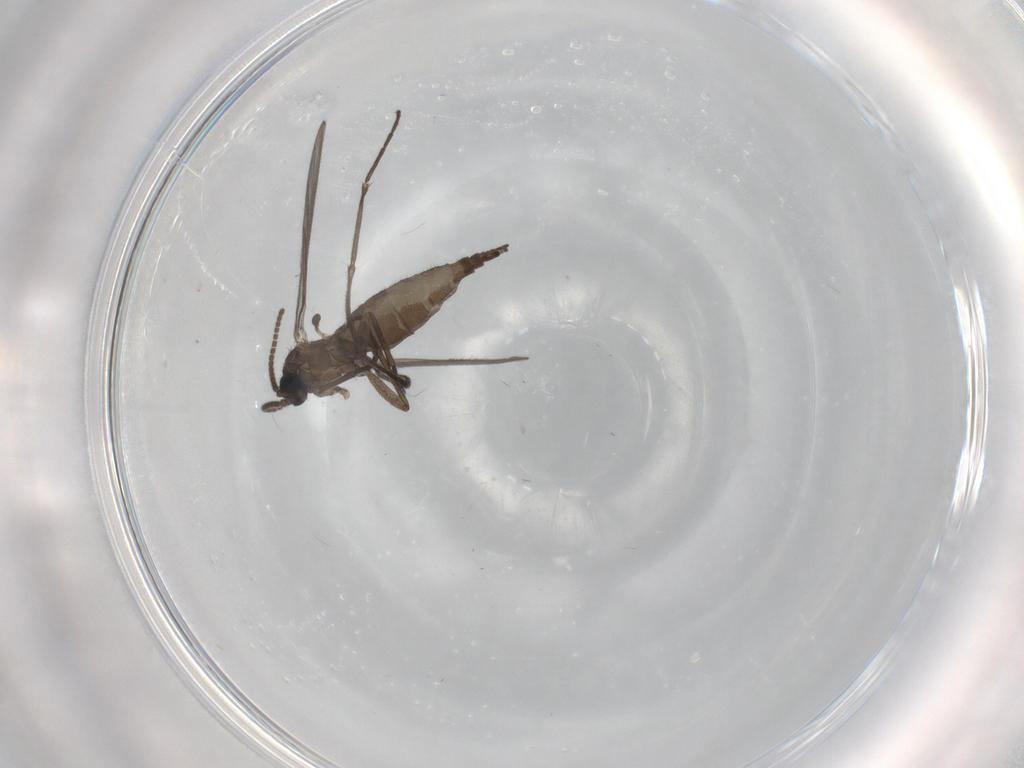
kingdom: Animalia
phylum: Arthropoda
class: Insecta
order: Diptera
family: Sciaridae
